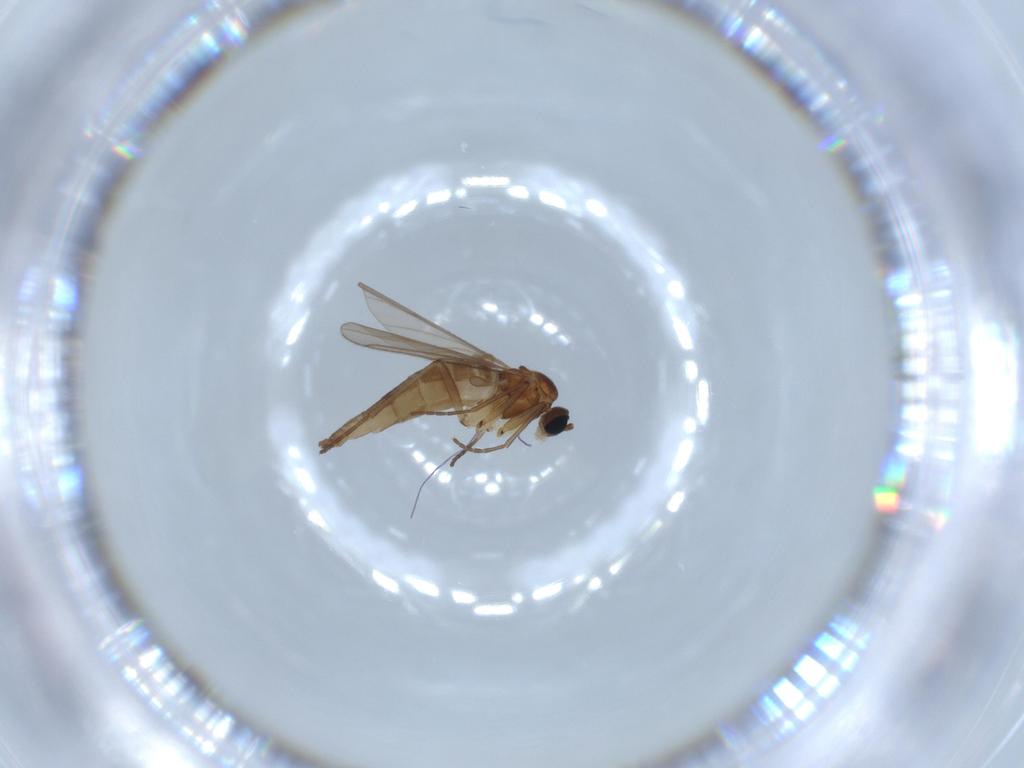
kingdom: Animalia
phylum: Arthropoda
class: Insecta
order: Diptera
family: Sciaridae
